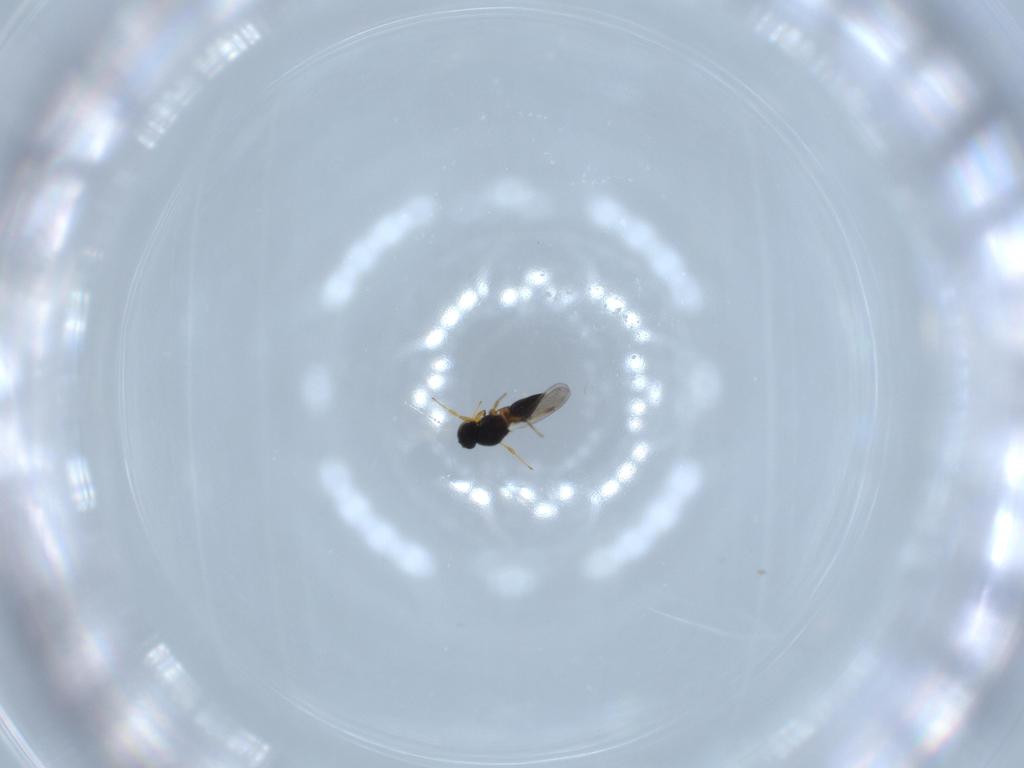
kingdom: Animalia
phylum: Arthropoda
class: Insecta
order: Hymenoptera
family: Platygastridae
